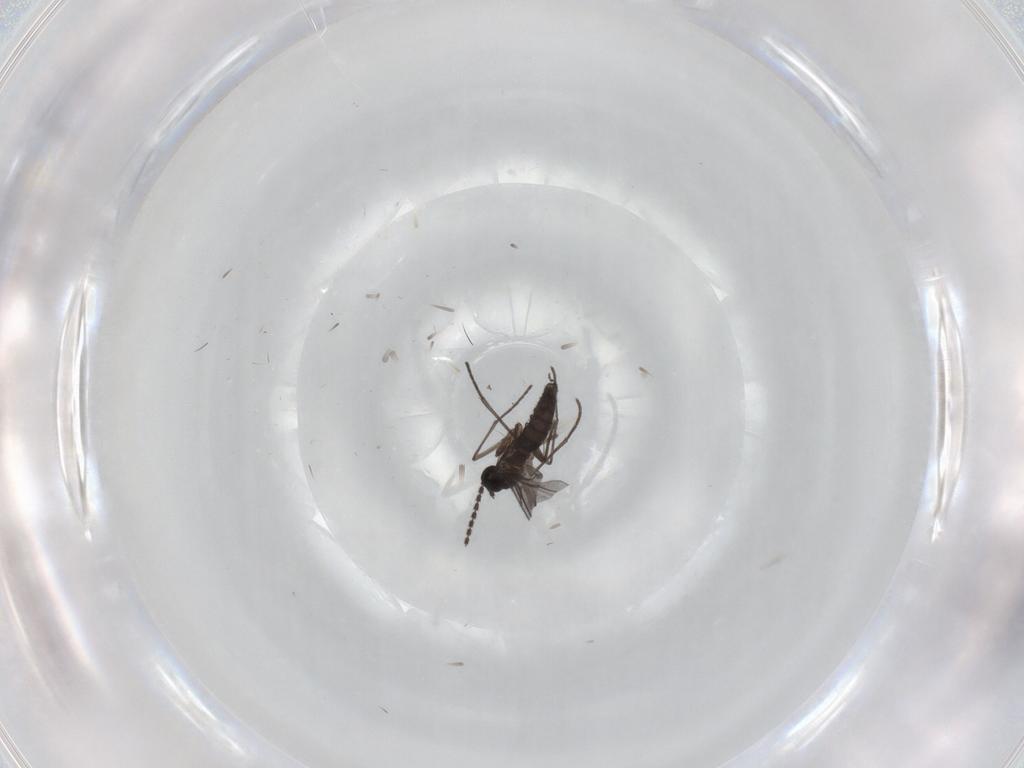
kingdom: Animalia
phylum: Arthropoda
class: Insecta
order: Diptera
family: Sciaridae
